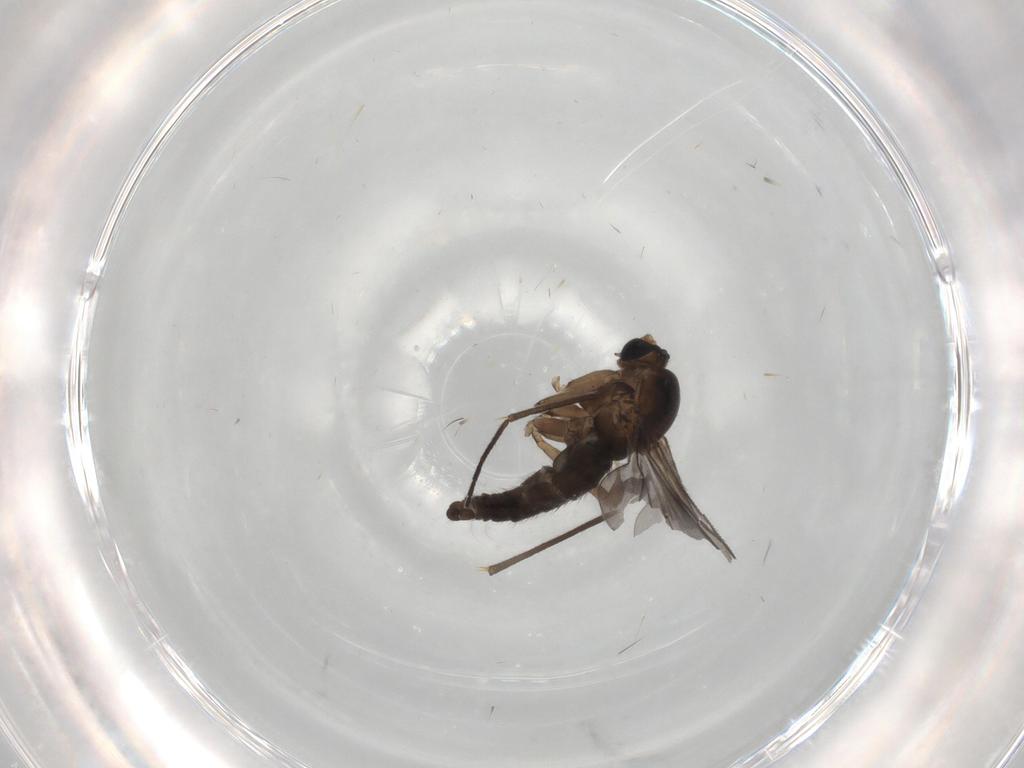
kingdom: Animalia
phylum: Arthropoda
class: Insecta
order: Diptera
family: Sciaridae
